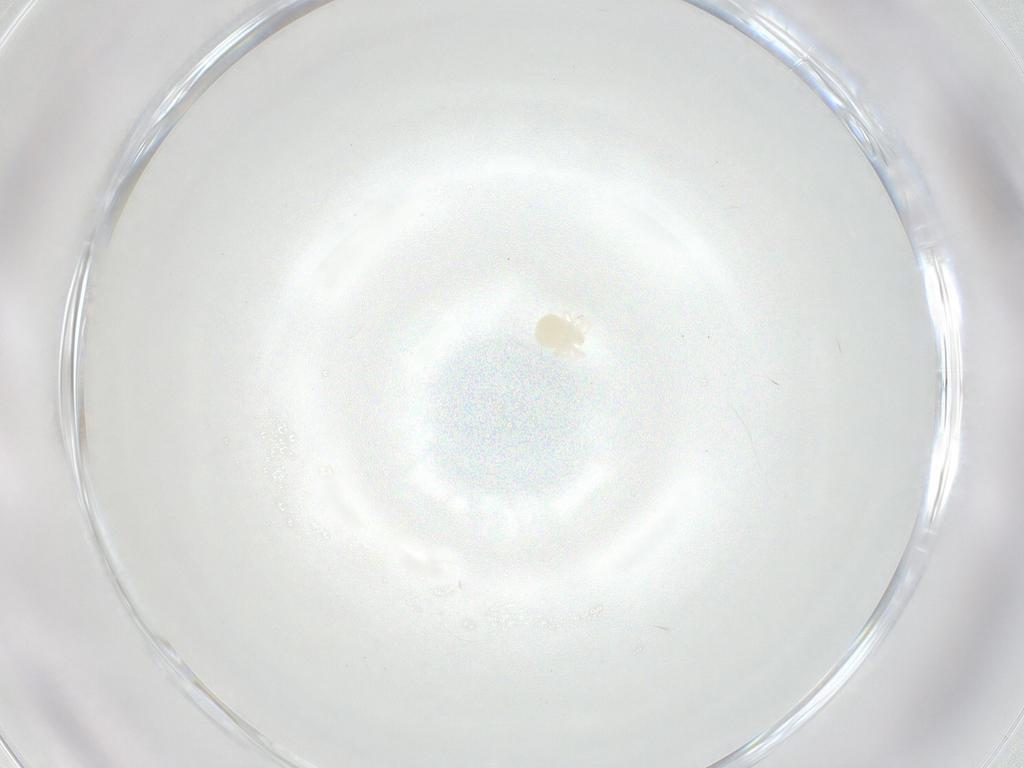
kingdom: Animalia
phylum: Arthropoda
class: Arachnida
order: Trombidiformes
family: Anystidae
